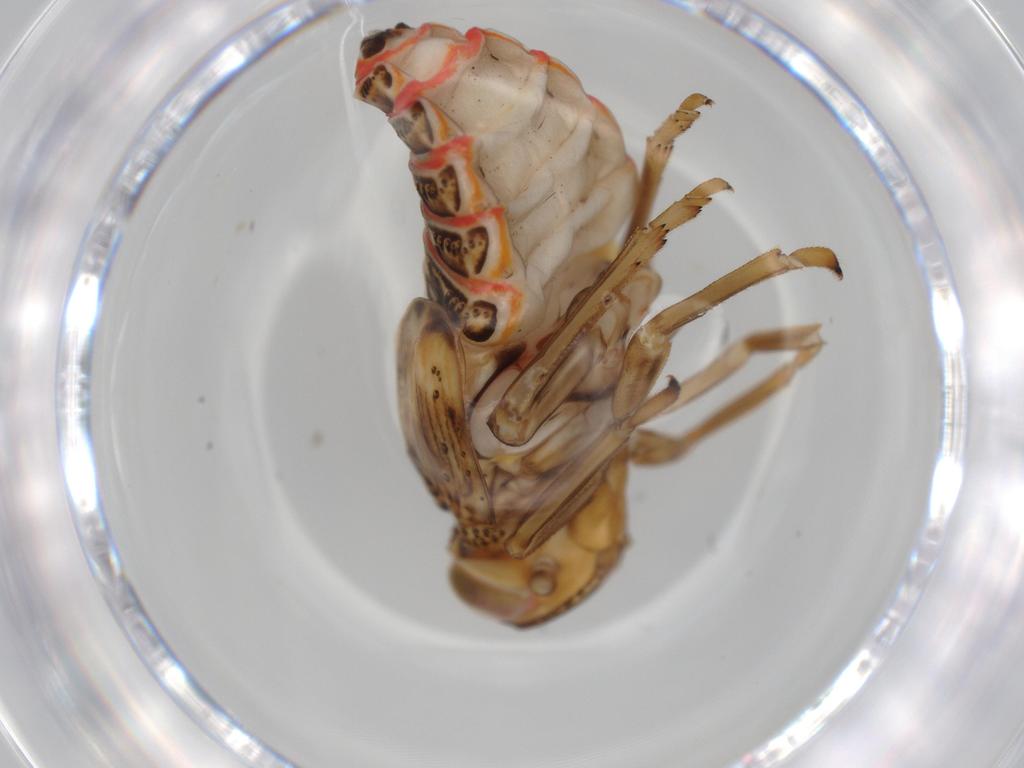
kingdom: Animalia
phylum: Arthropoda
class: Insecta
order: Hemiptera
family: Issidae
